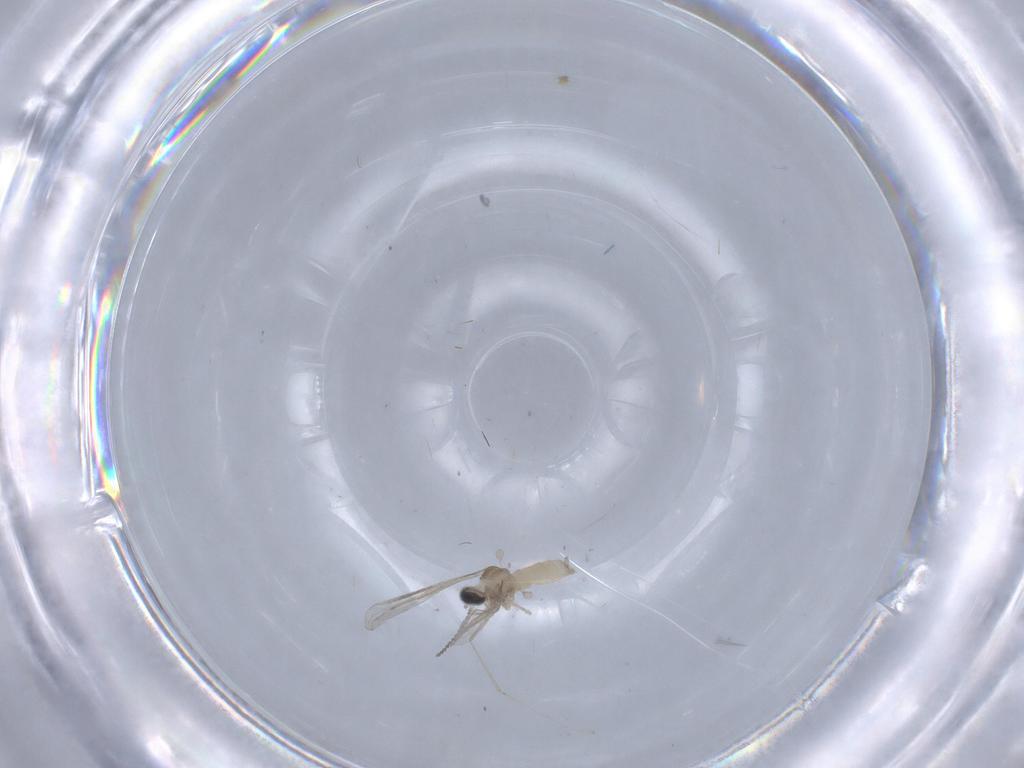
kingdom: Animalia
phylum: Arthropoda
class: Insecta
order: Diptera
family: Cecidomyiidae
